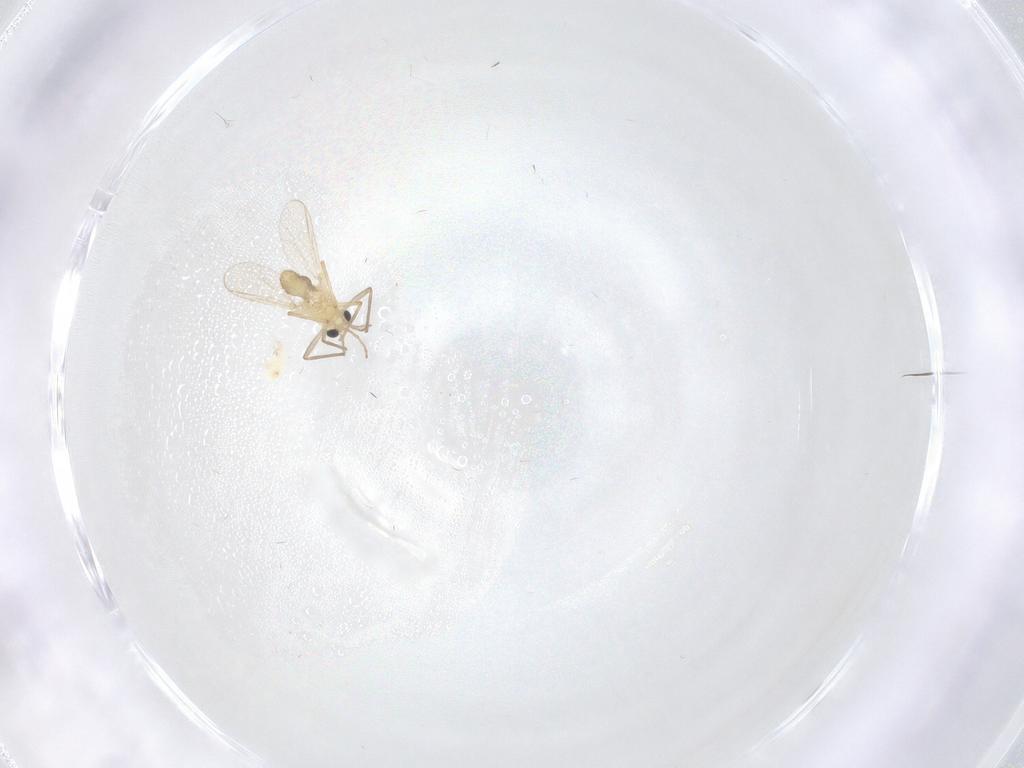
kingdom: Animalia
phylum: Arthropoda
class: Insecta
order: Diptera
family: Chironomidae
